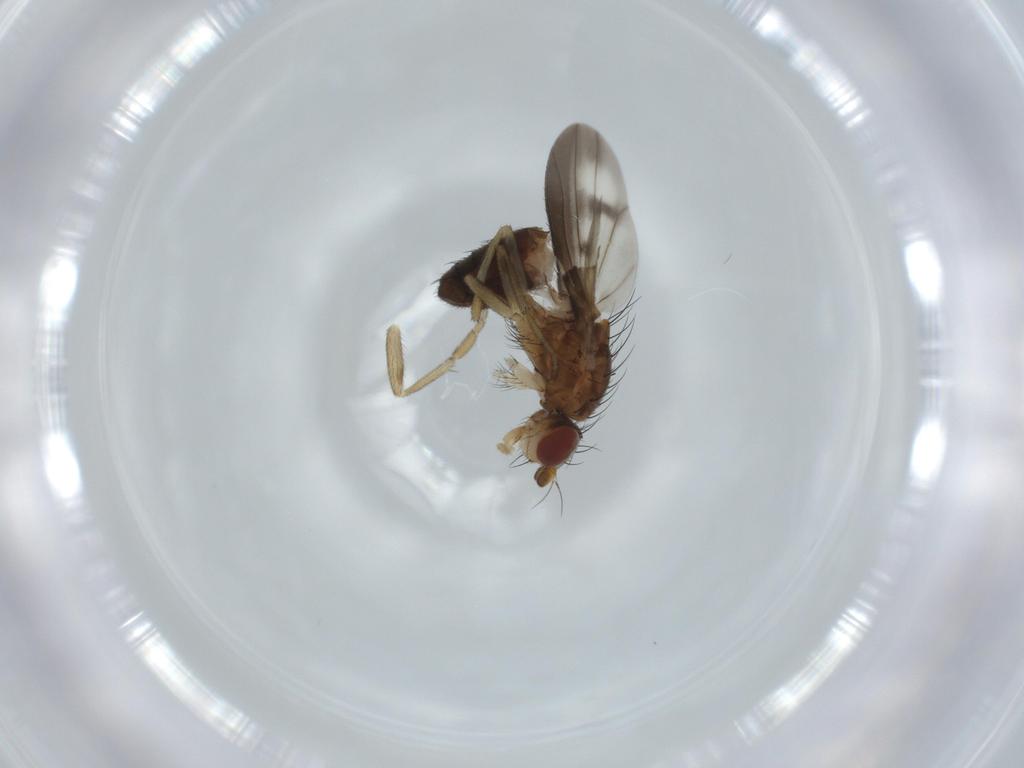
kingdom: Animalia
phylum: Arthropoda
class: Insecta
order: Diptera
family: Heleomyzidae
